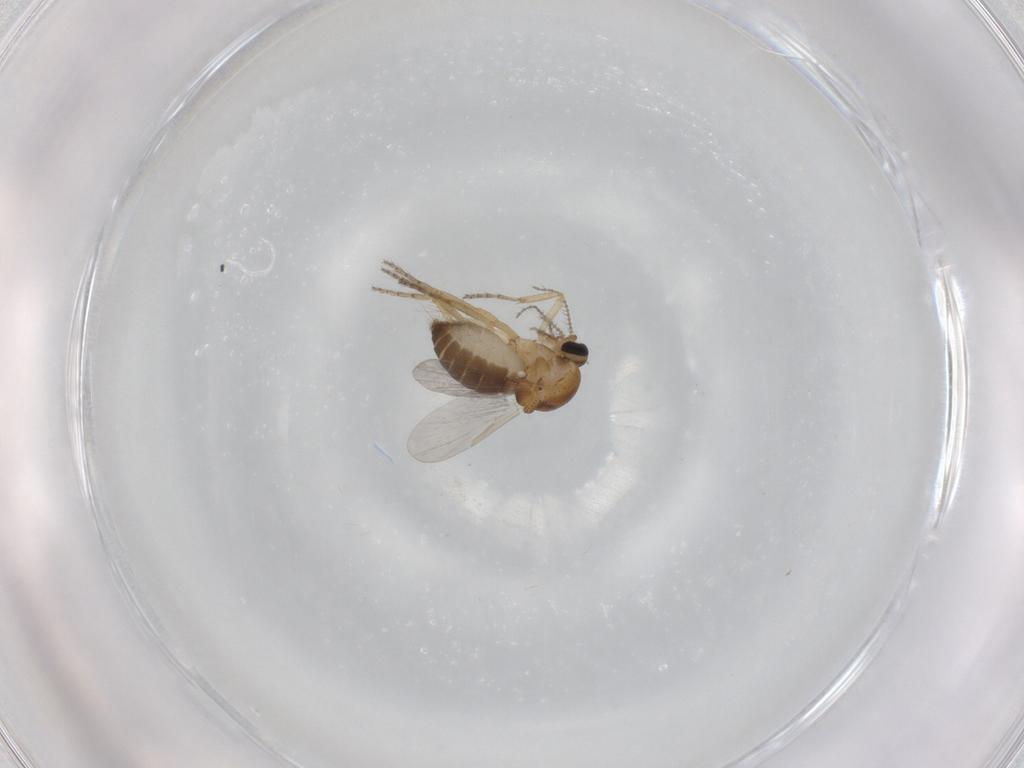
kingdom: Animalia
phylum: Arthropoda
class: Insecta
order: Diptera
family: Ceratopogonidae
